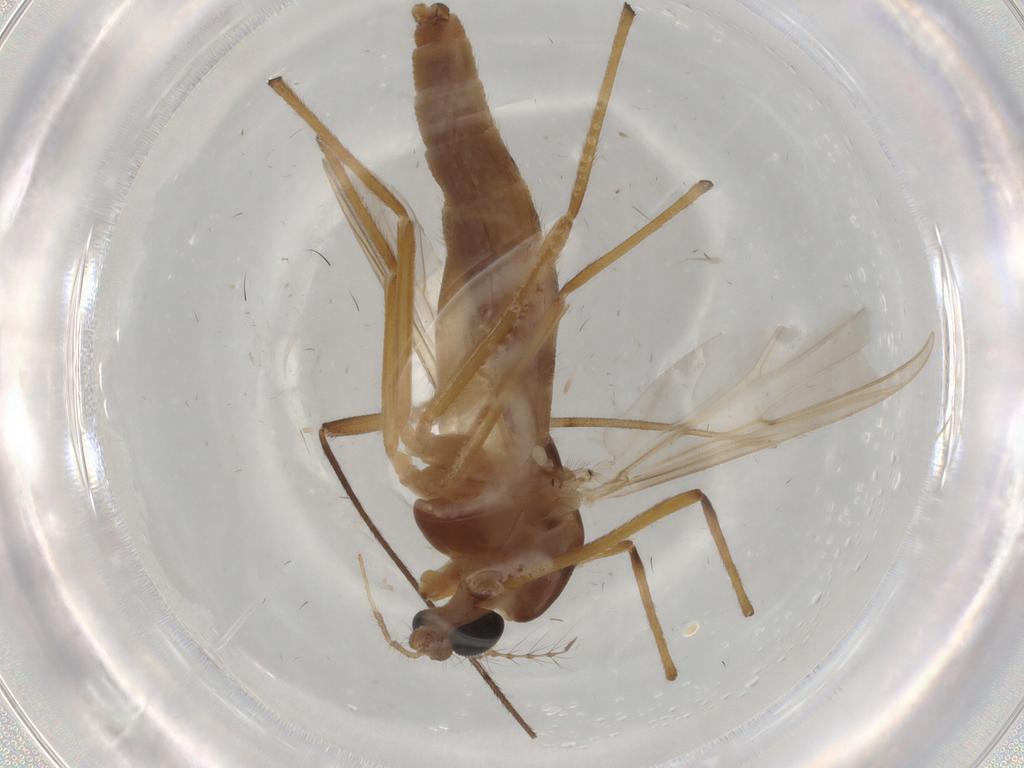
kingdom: Animalia
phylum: Arthropoda
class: Insecta
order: Diptera
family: Chironomidae
